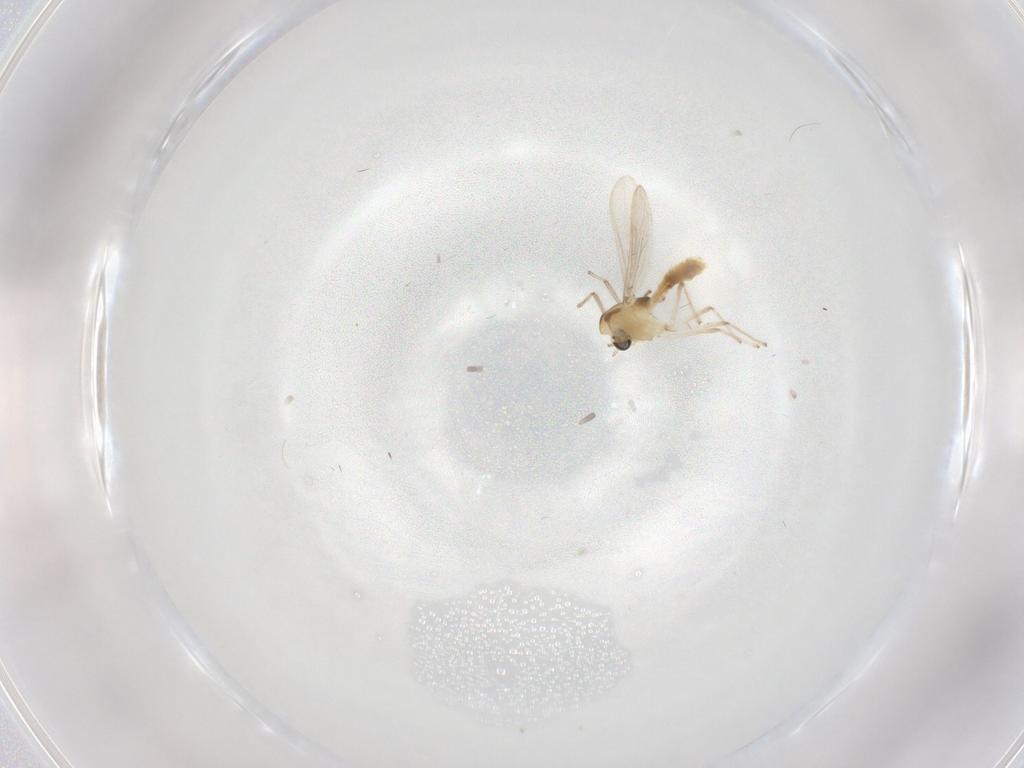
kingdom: Animalia
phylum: Arthropoda
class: Insecta
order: Diptera
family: Chironomidae
